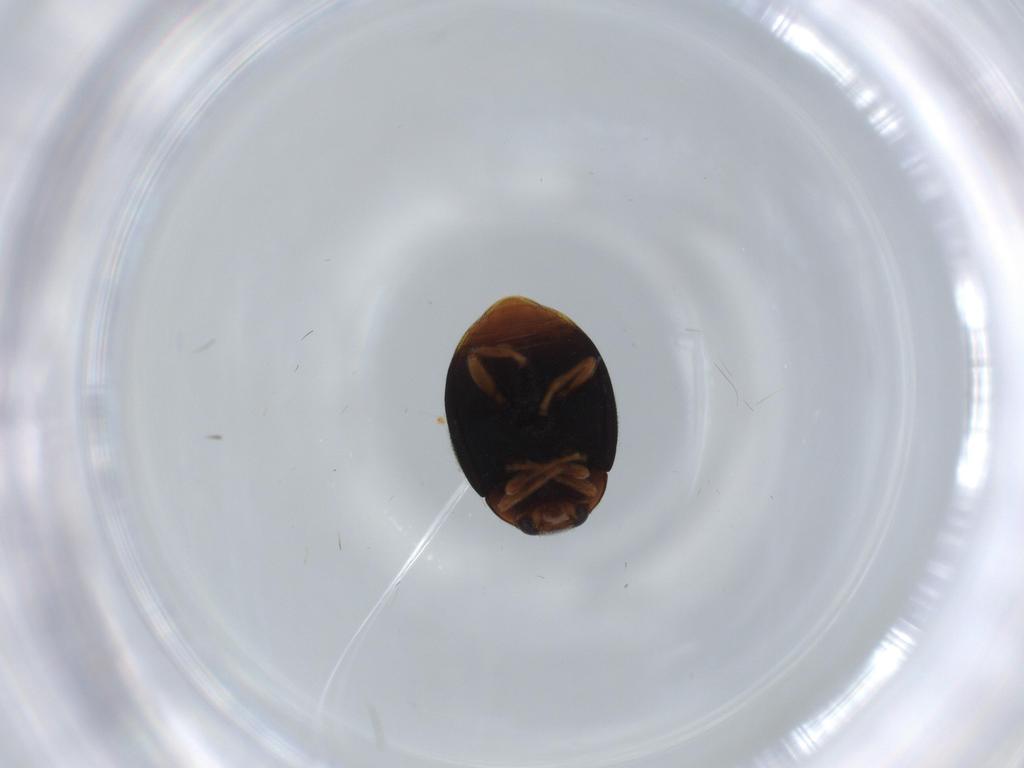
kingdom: Animalia
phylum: Arthropoda
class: Insecta
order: Coleoptera
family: Coccinellidae
